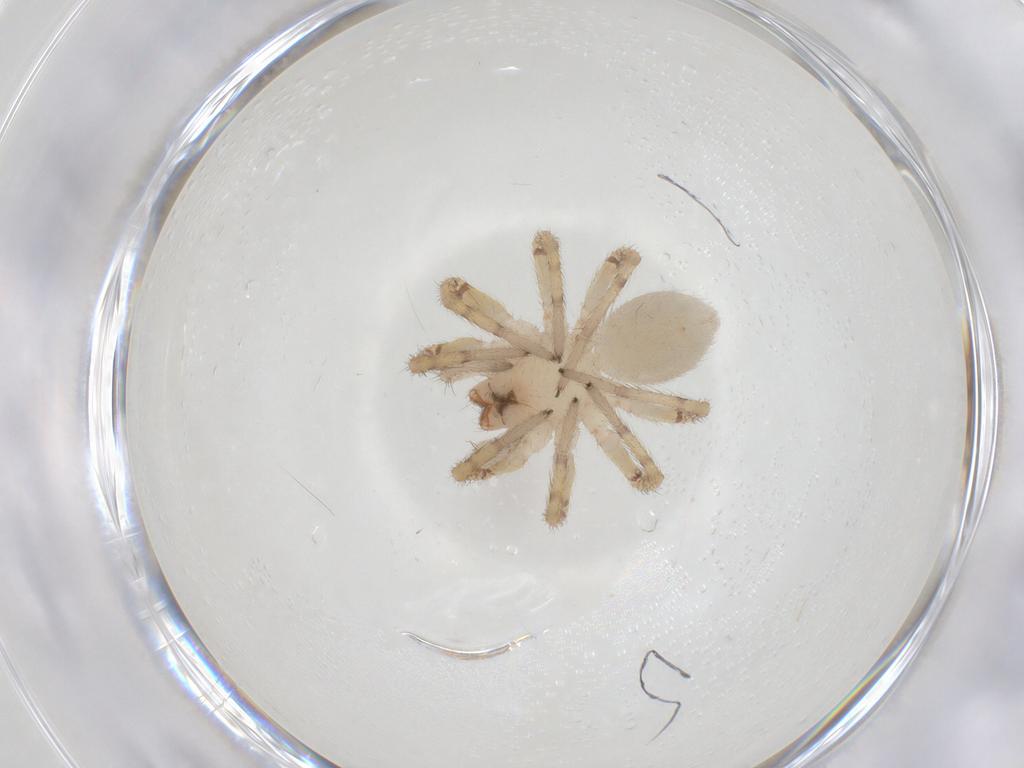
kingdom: Animalia
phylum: Arthropoda
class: Arachnida
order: Araneae
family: Corinnidae
